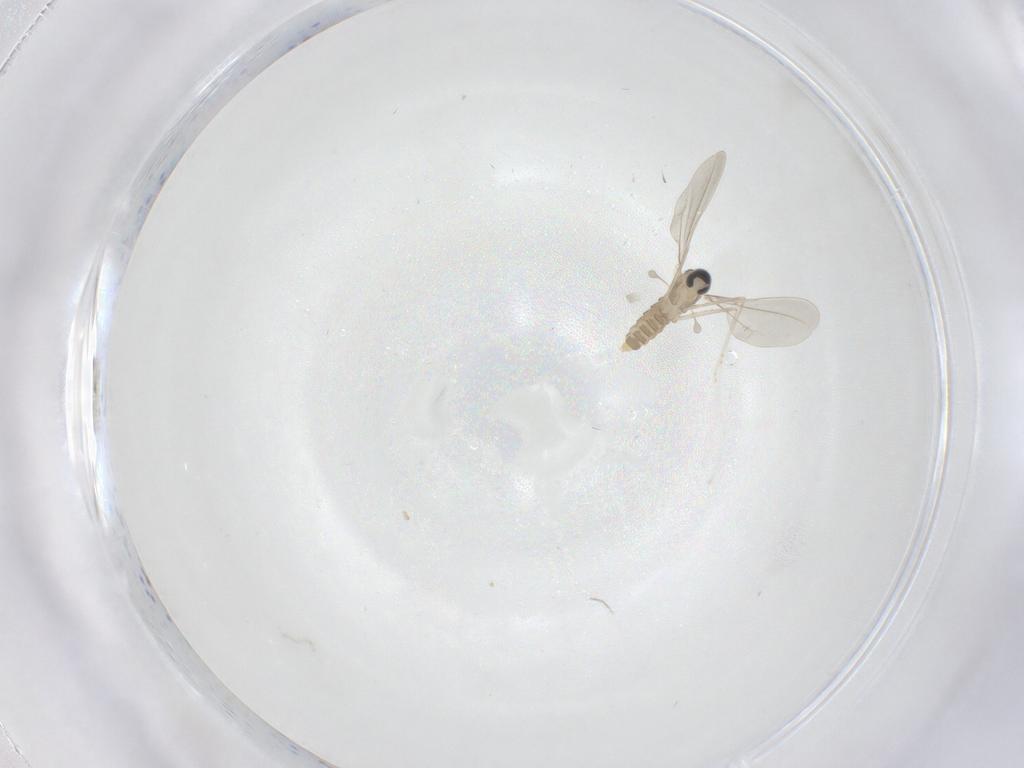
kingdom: Animalia
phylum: Arthropoda
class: Insecta
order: Diptera
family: Cecidomyiidae
